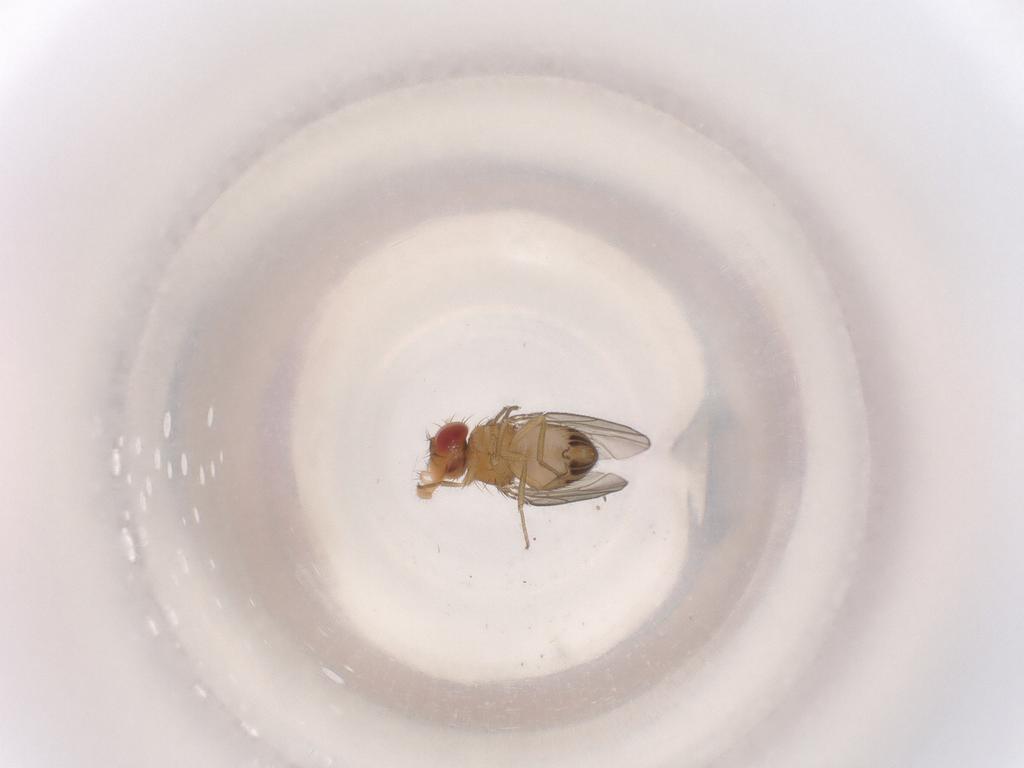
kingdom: Animalia
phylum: Arthropoda
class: Insecta
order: Diptera
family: Drosophilidae
